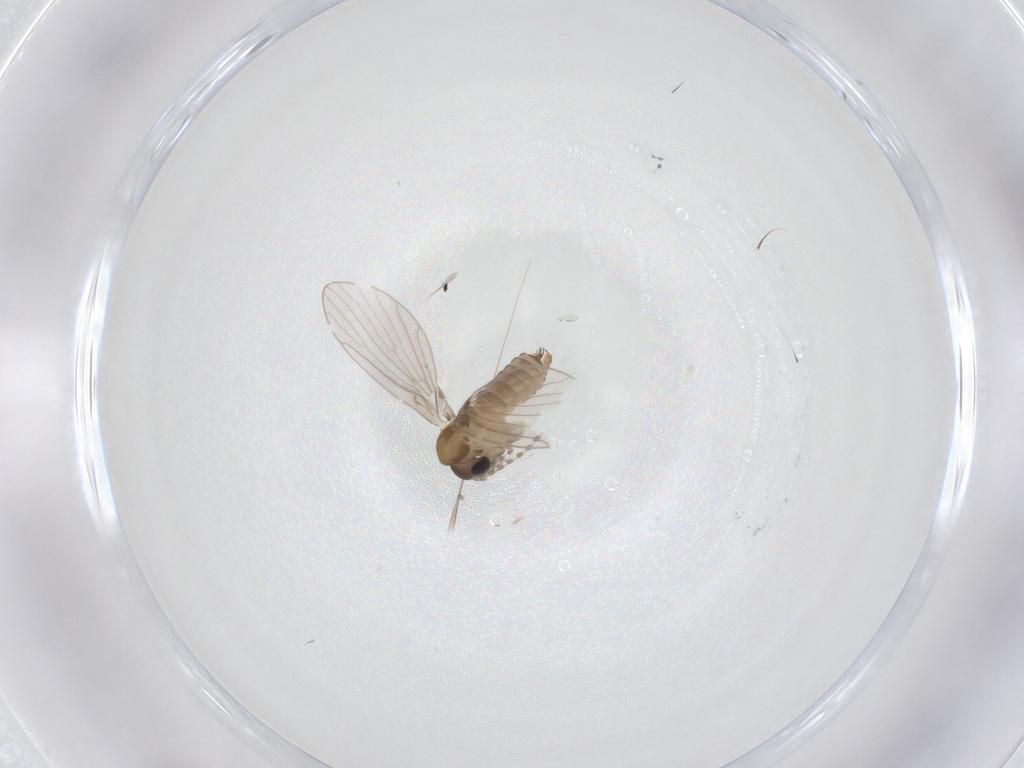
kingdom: Animalia
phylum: Arthropoda
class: Insecta
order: Diptera
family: Psychodidae
